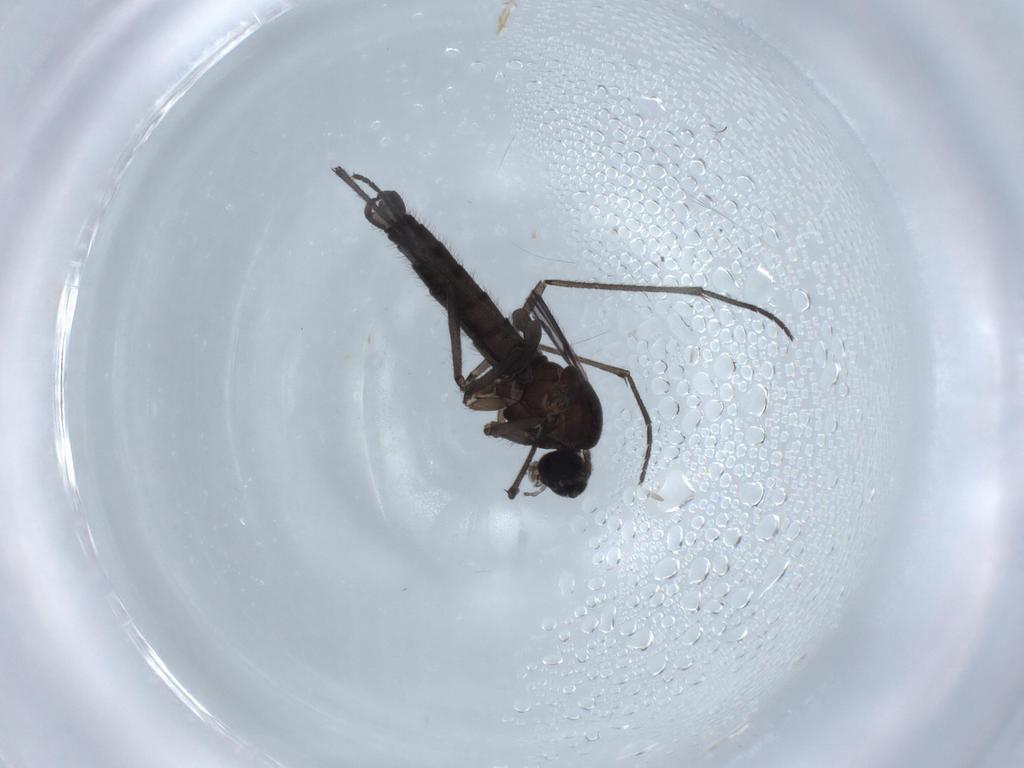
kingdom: Animalia
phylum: Arthropoda
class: Insecta
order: Diptera
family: Sciaridae
